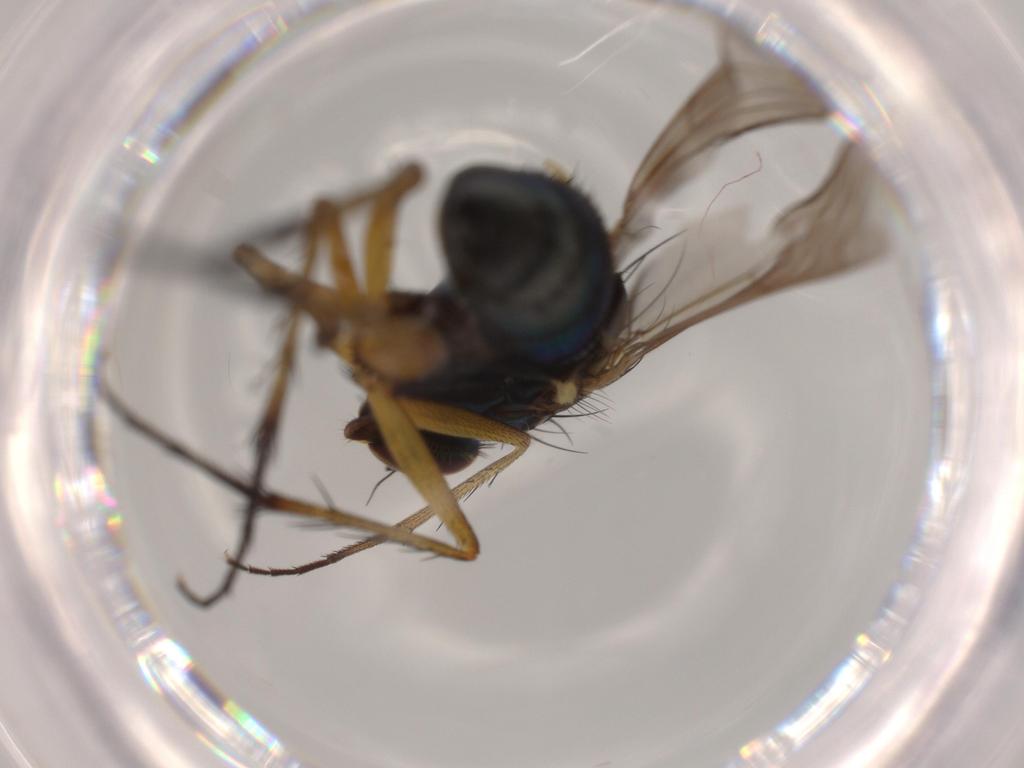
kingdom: Animalia
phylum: Arthropoda
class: Insecta
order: Diptera
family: Dolichopodidae
